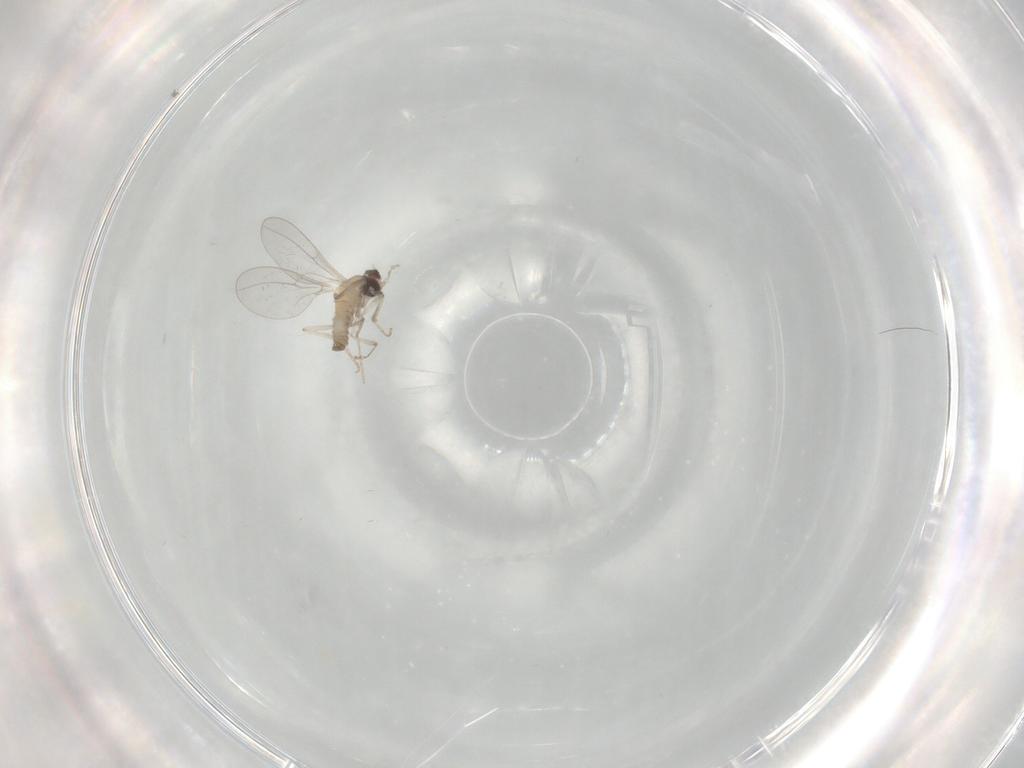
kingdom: Animalia
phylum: Arthropoda
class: Insecta
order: Diptera
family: Cecidomyiidae
